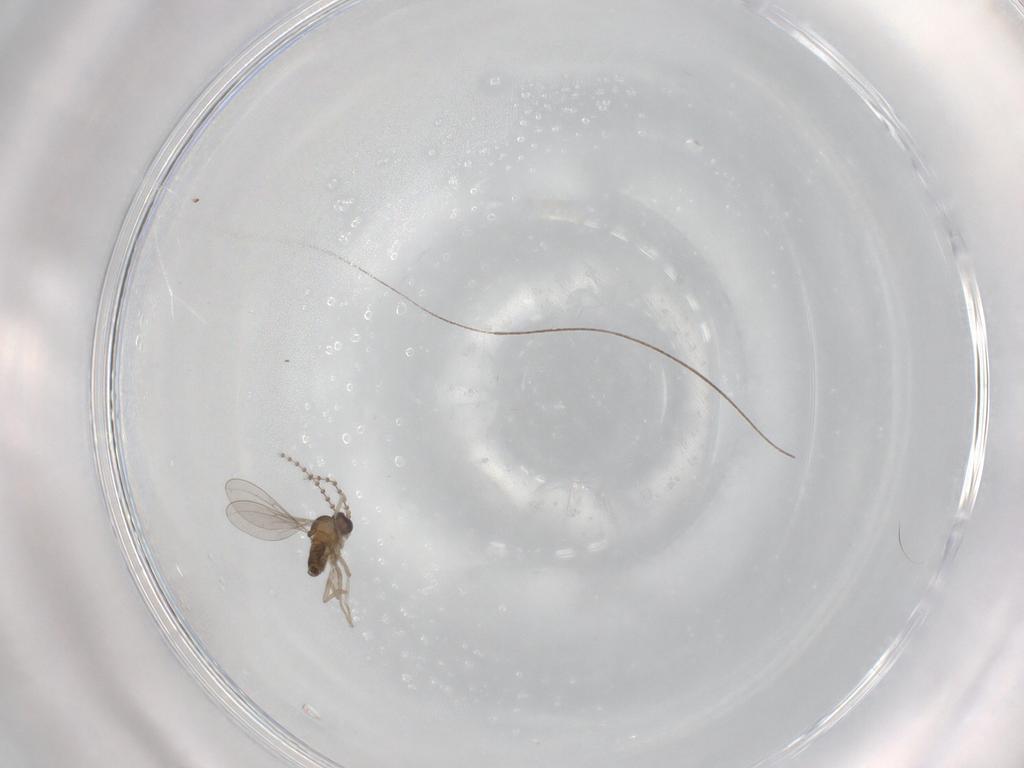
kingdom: Animalia
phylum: Arthropoda
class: Insecta
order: Diptera
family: Cecidomyiidae
